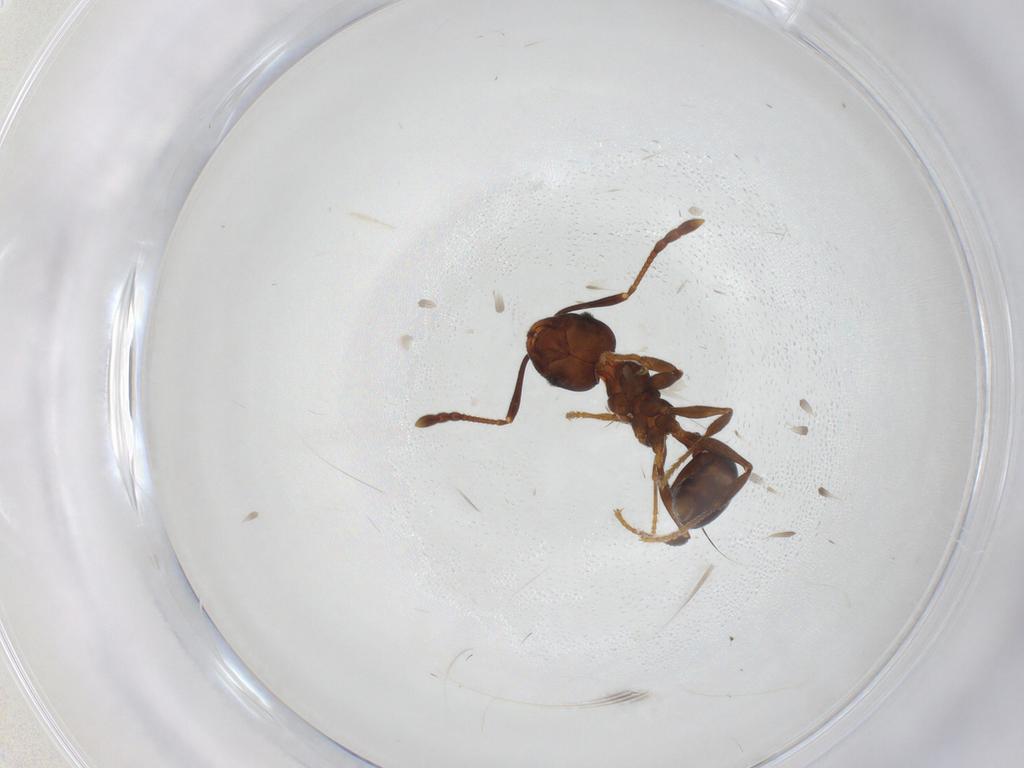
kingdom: Animalia
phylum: Arthropoda
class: Insecta
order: Hymenoptera
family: Formicidae
